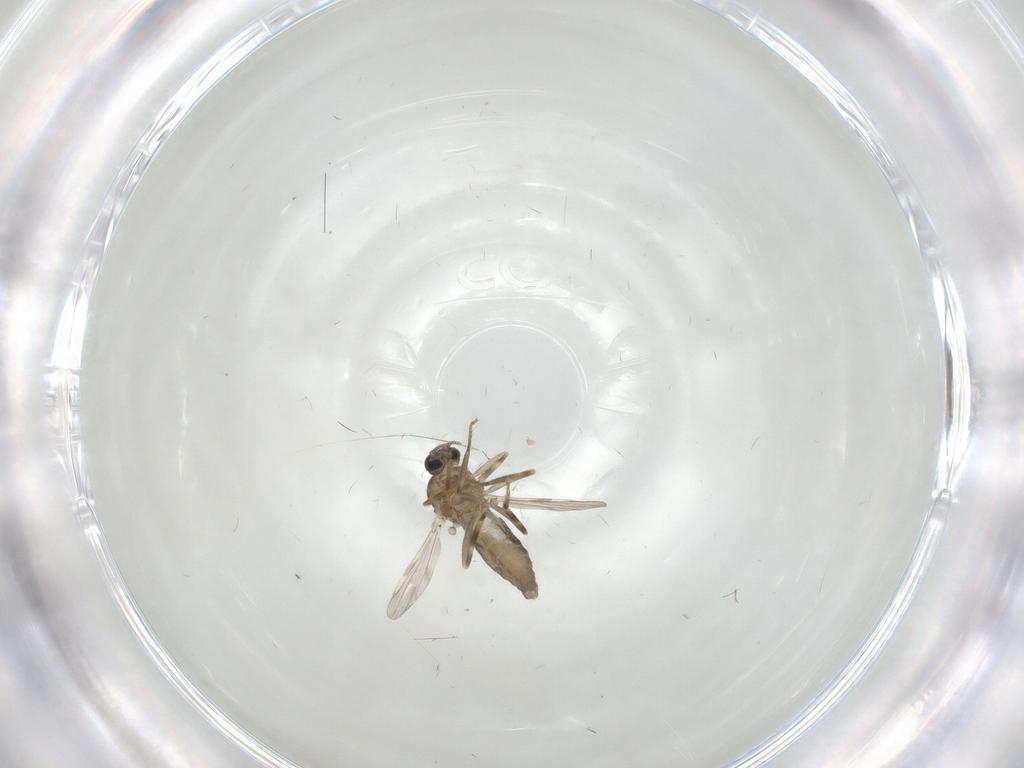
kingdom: Animalia
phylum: Arthropoda
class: Insecta
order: Diptera
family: Ceratopogonidae
